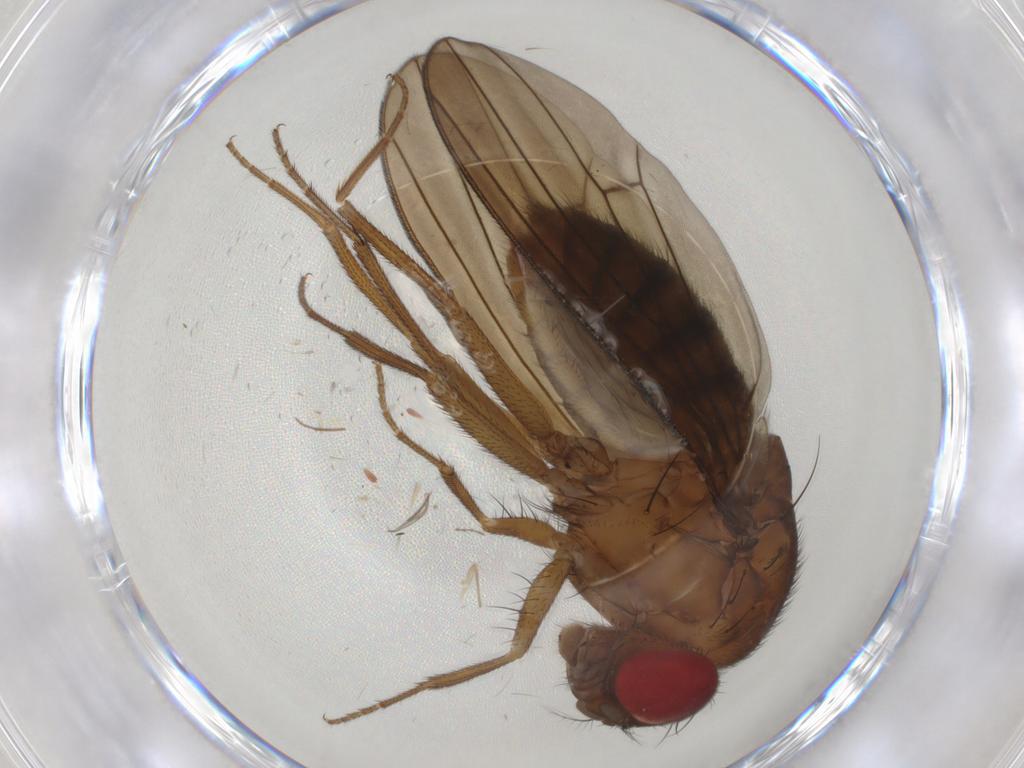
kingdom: Animalia
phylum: Arthropoda
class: Insecta
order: Diptera
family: Drosophilidae
